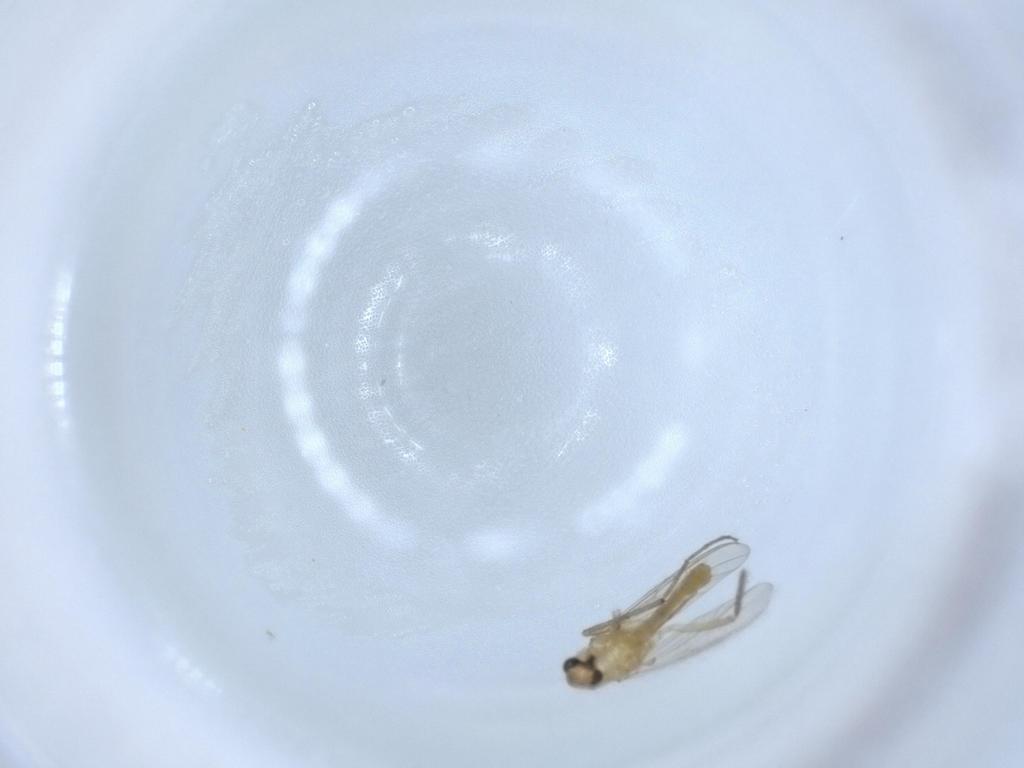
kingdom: Animalia
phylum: Arthropoda
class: Insecta
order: Diptera
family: Chironomidae
